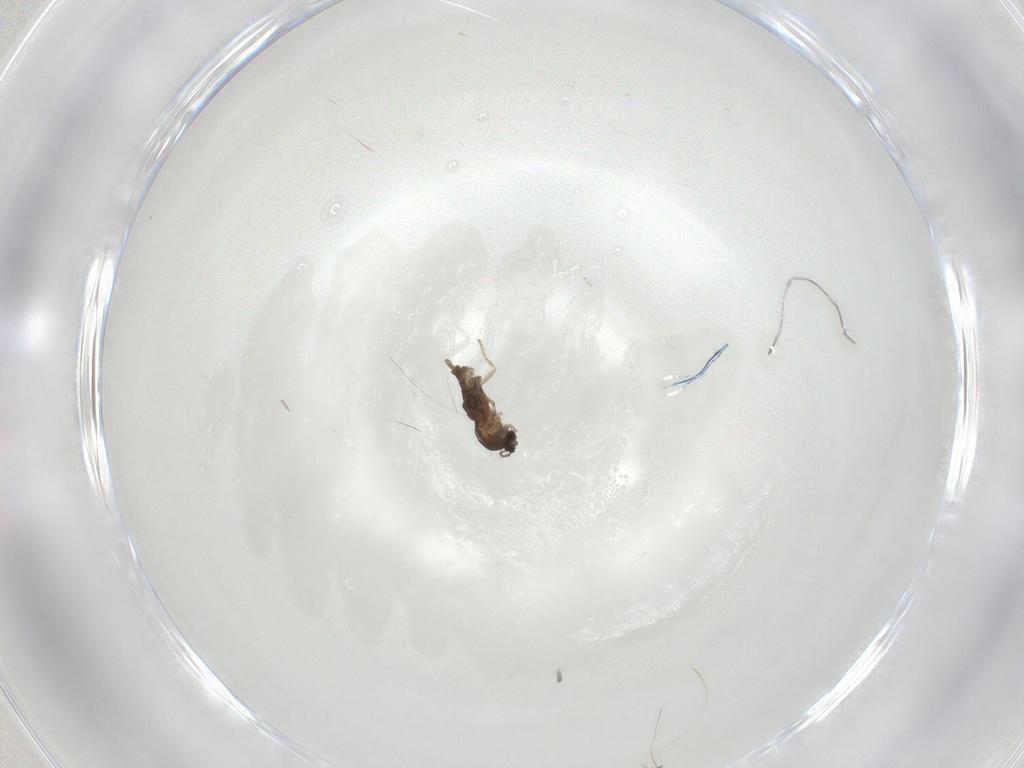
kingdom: Animalia
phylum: Arthropoda
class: Insecta
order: Diptera
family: Cecidomyiidae
